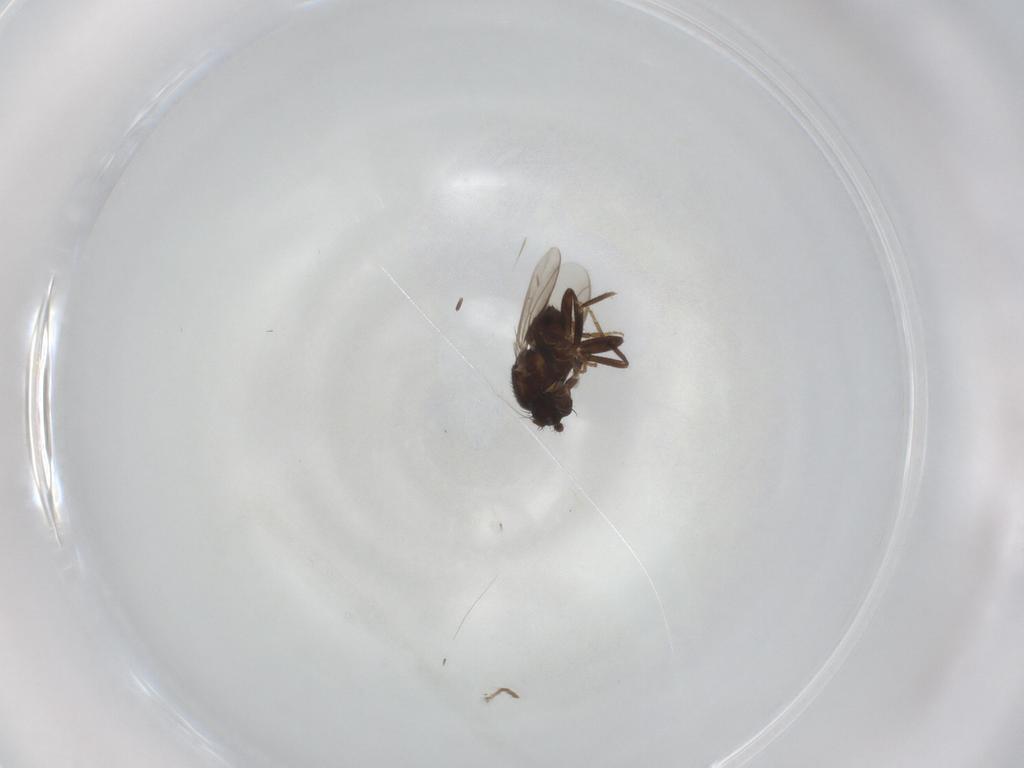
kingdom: Animalia
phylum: Arthropoda
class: Insecta
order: Diptera
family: Sphaeroceridae
